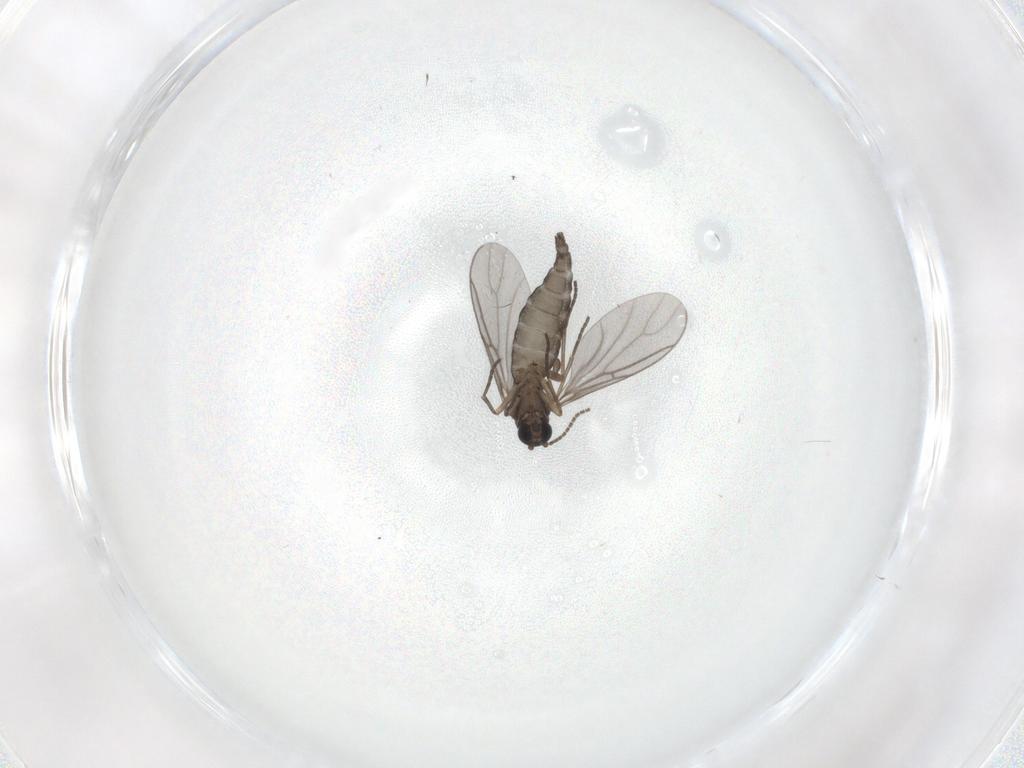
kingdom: Animalia
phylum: Arthropoda
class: Insecta
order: Diptera
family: Sciaridae
